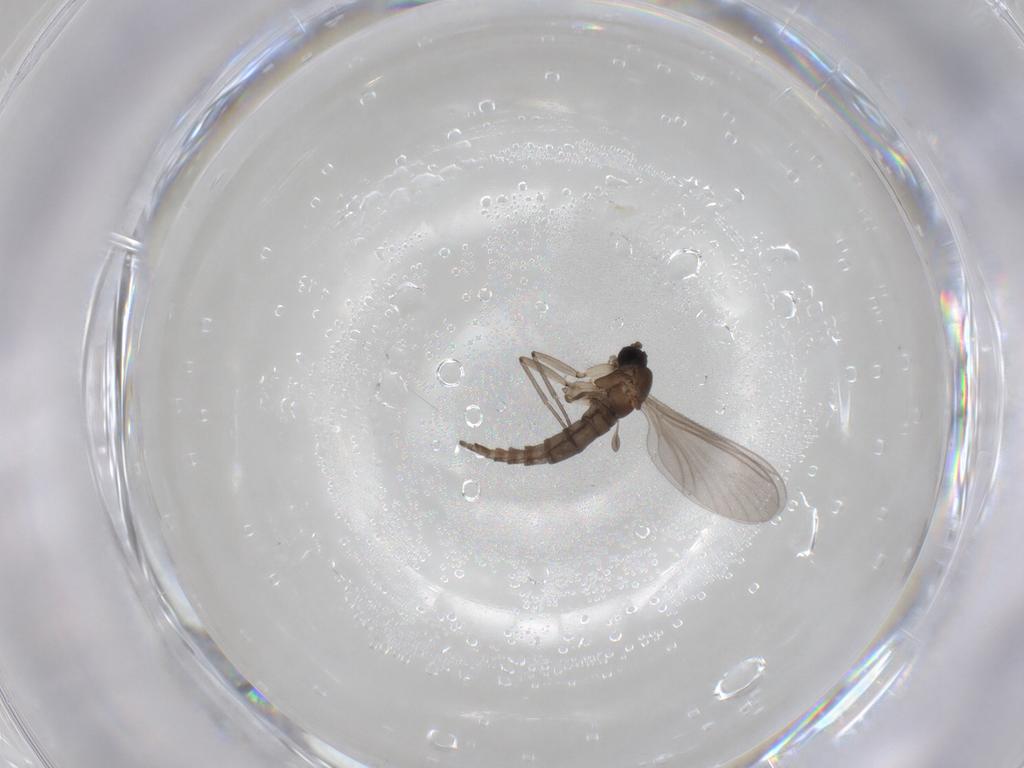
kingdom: Animalia
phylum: Arthropoda
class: Insecta
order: Diptera
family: Sciaridae
